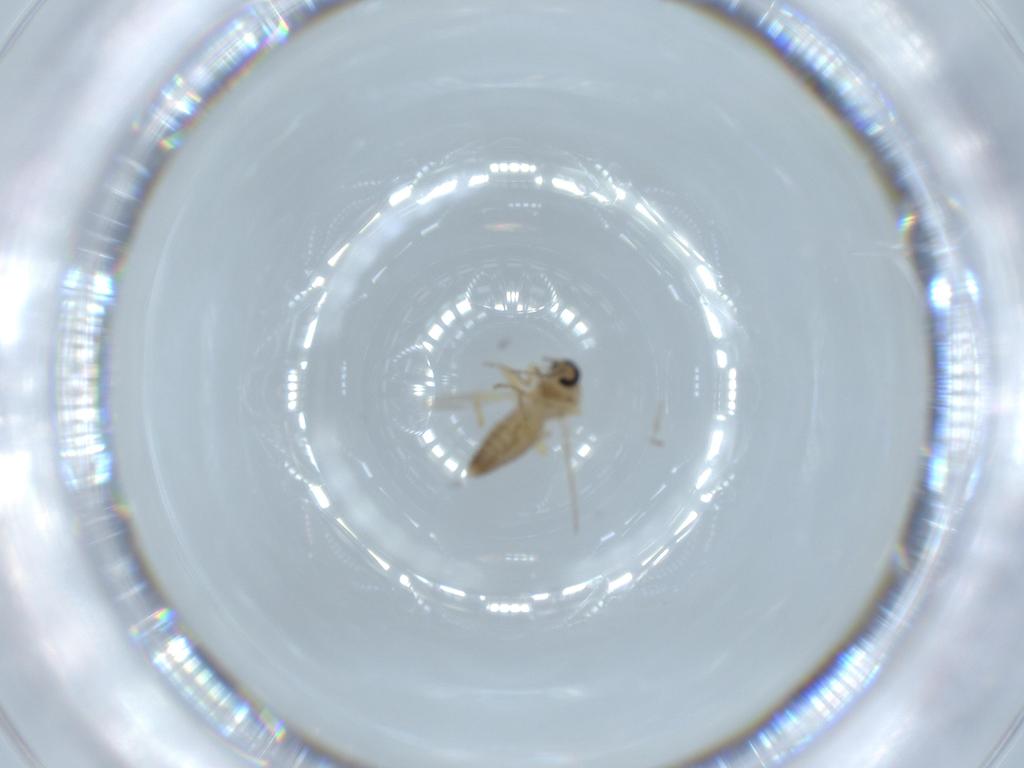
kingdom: Animalia
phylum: Arthropoda
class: Insecta
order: Diptera
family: Ceratopogonidae
